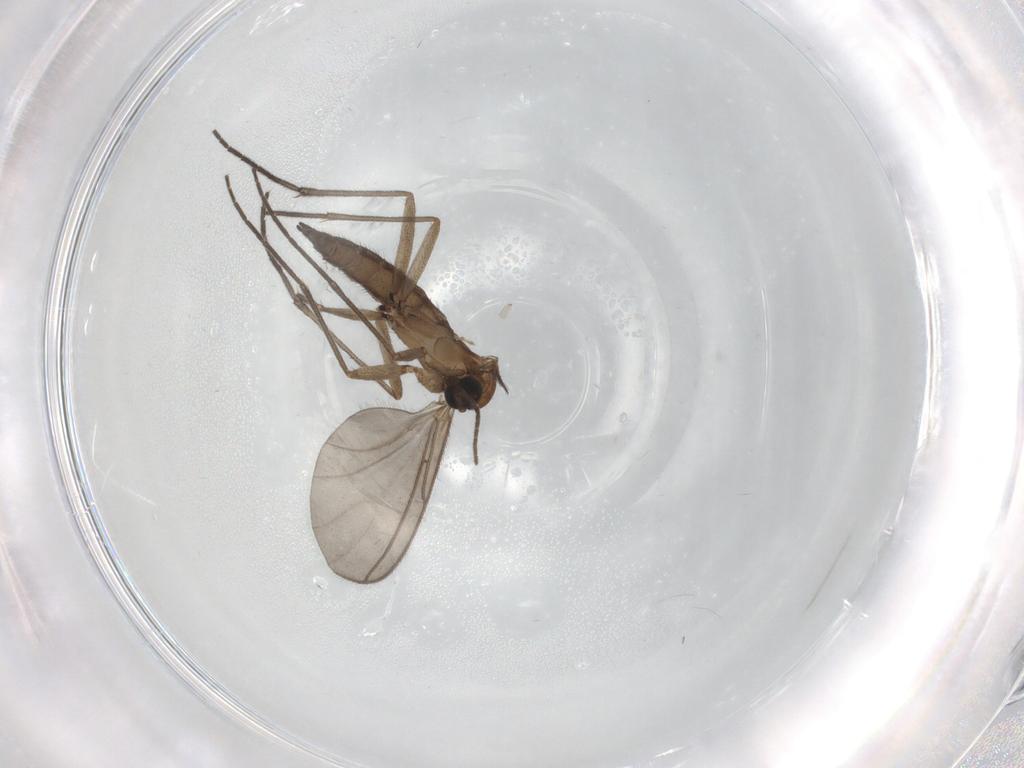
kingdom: Animalia
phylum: Arthropoda
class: Insecta
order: Diptera
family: Sciaridae
